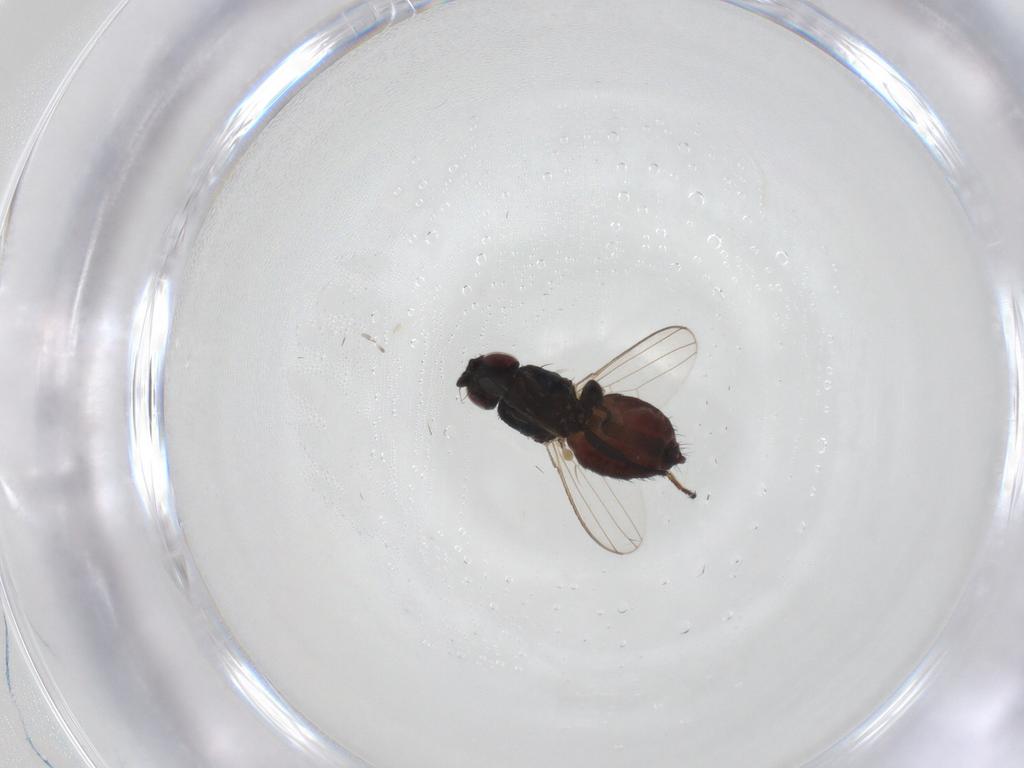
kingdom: Animalia
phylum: Arthropoda
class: Insecta
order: Diptera
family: Milichiidae
